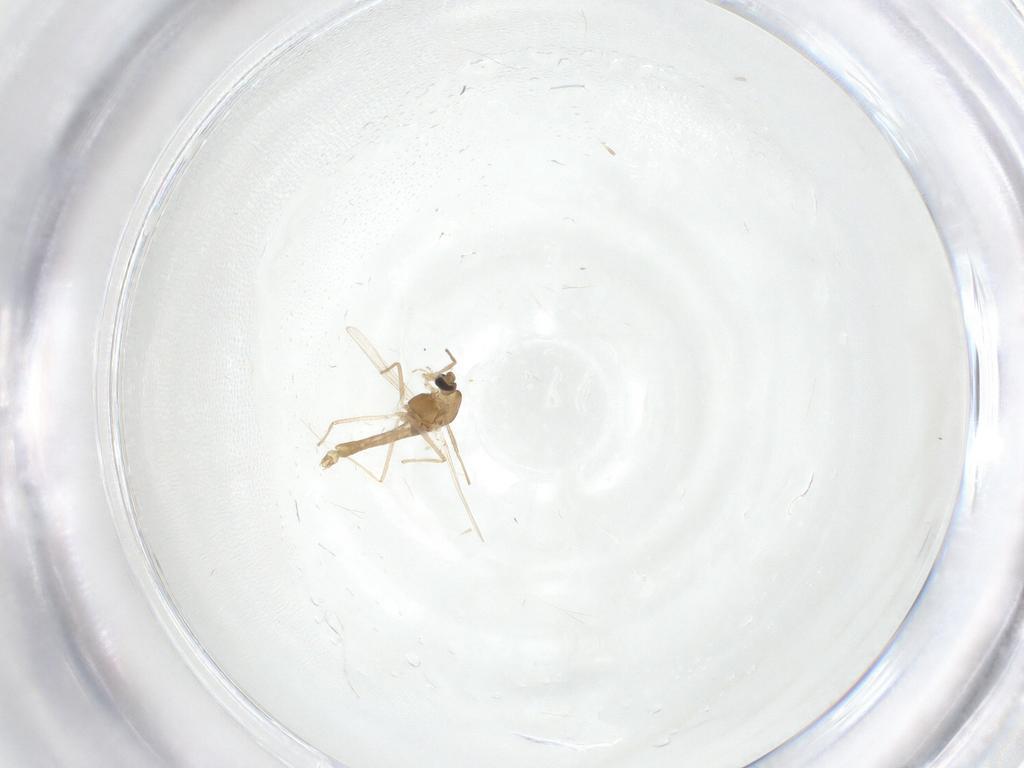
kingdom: Animalia
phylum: Arthropoda
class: Insecta
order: Diptera
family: Chironomidae
